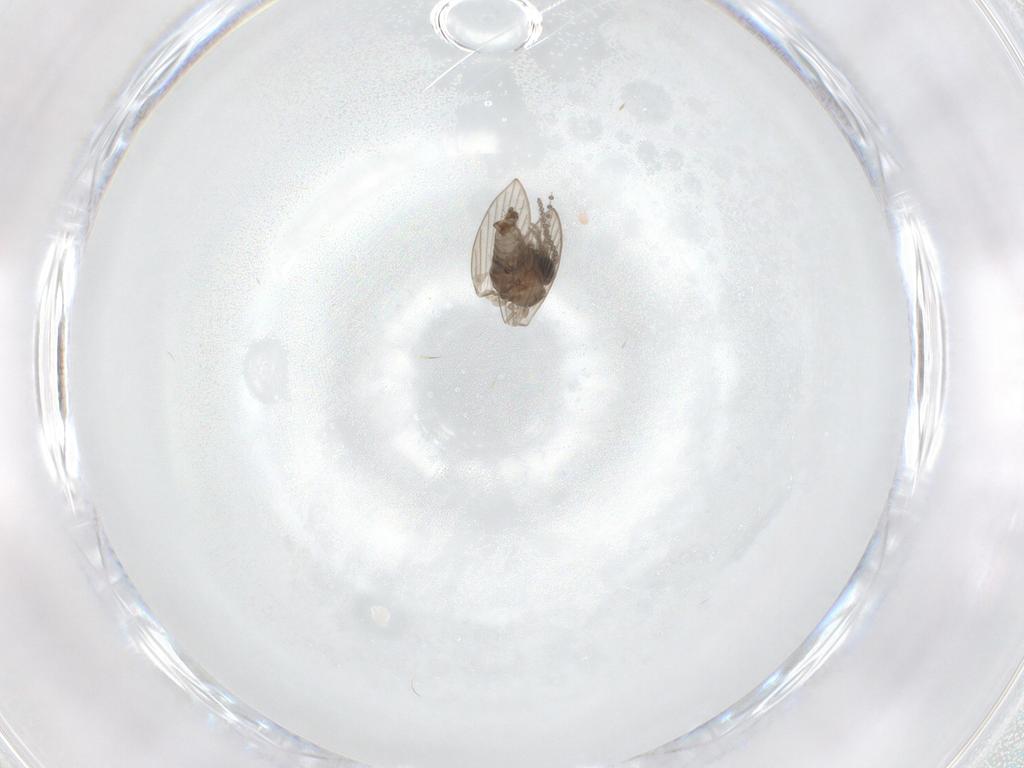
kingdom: Animalia
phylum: Arthropoda
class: Insecta
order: Diptera
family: Psychodidae
